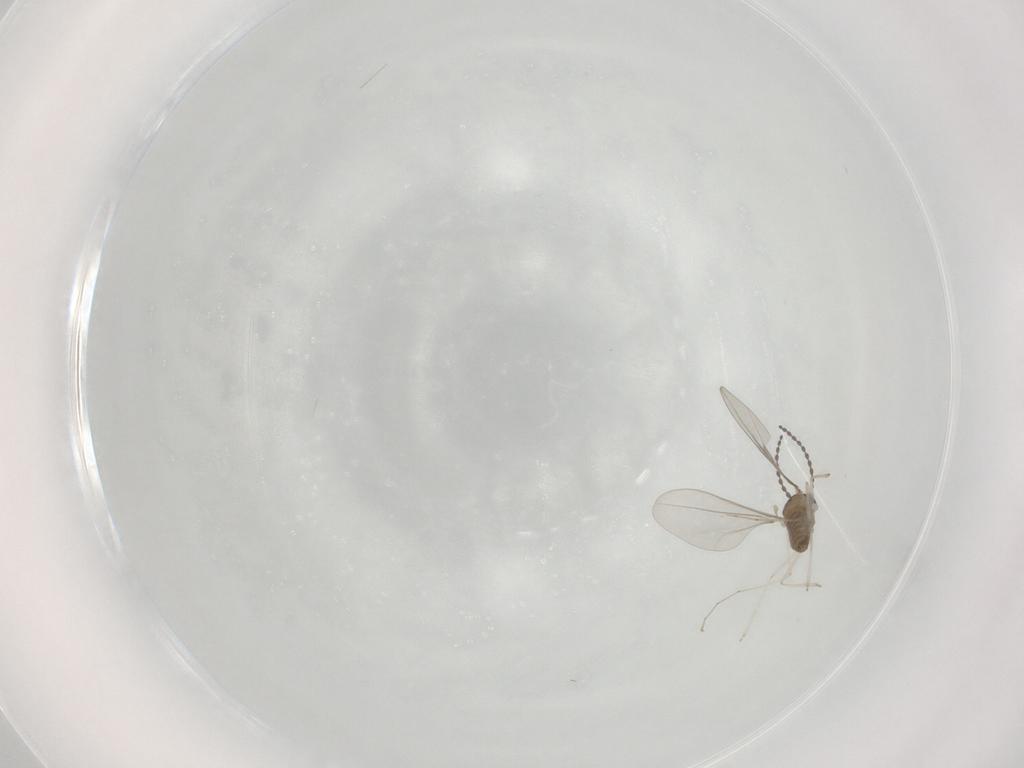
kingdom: Animalia
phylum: Arthropoda
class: Insecta
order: Diptera
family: Cecidomyiidae
